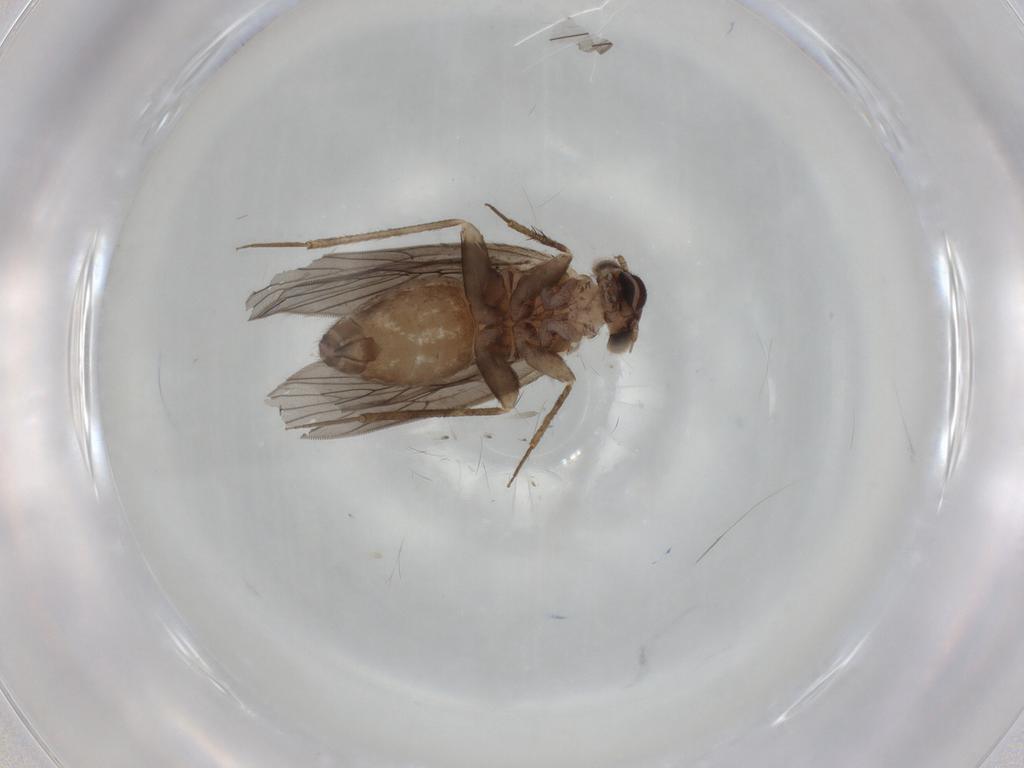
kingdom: Animalia
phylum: Arthropoda
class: Insecta
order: Psocodea
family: Lepidopsocidae
